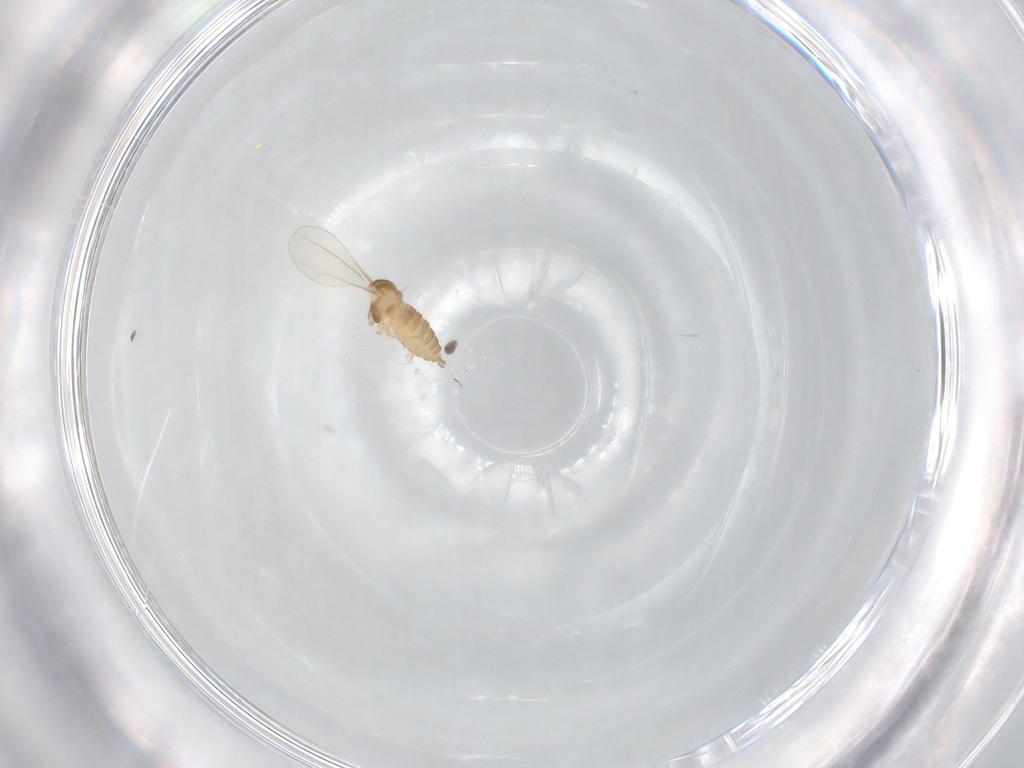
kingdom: Animalia
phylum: Arthropoda
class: Insecta
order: Diptera
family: Cecidomyiidae
